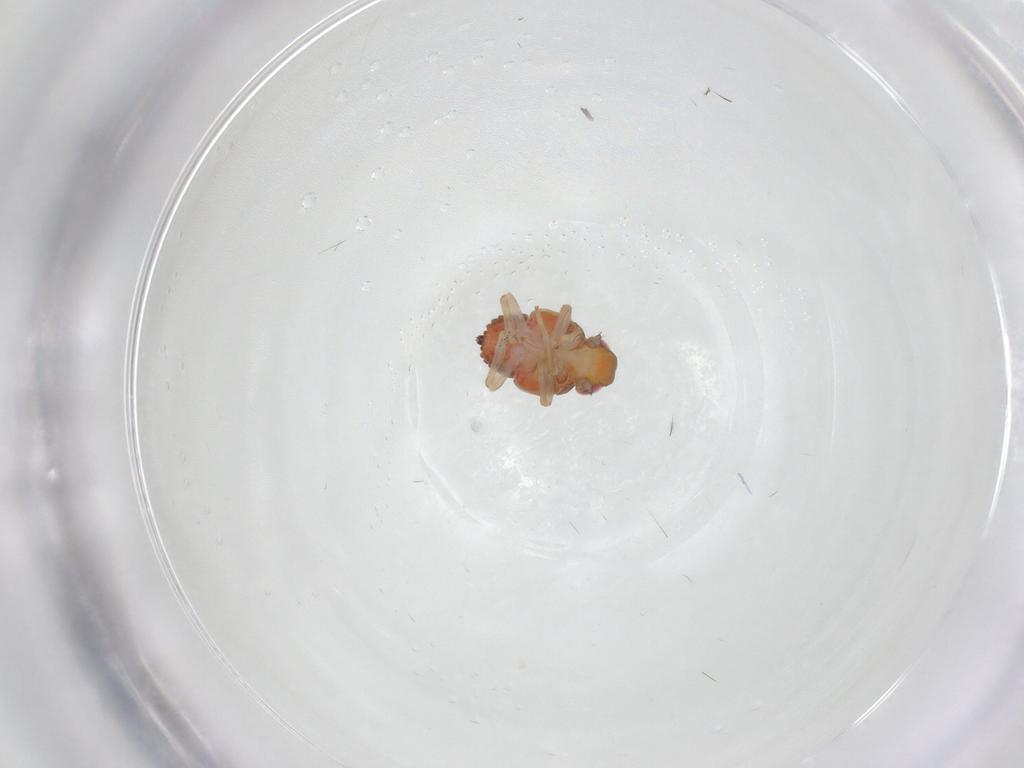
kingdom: Animalia
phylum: Arthropoda
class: Insecta
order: Hemiptera
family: Issidae
